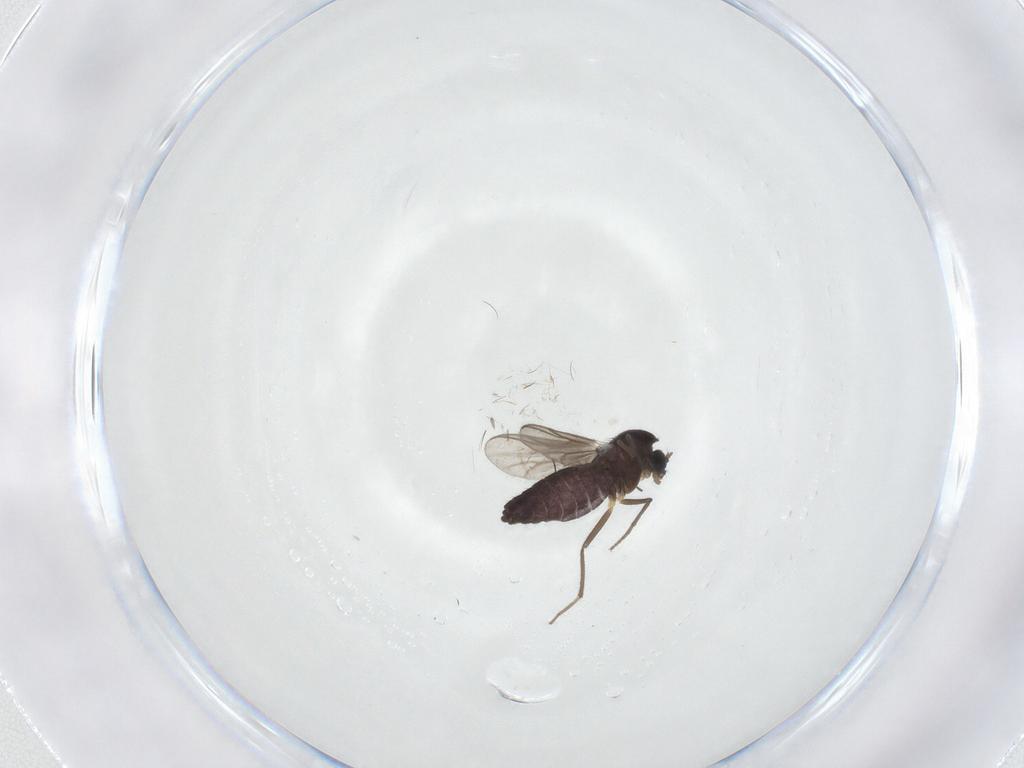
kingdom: Animalia
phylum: Arthropoda
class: Insecta
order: Diptera
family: Chironomidae
